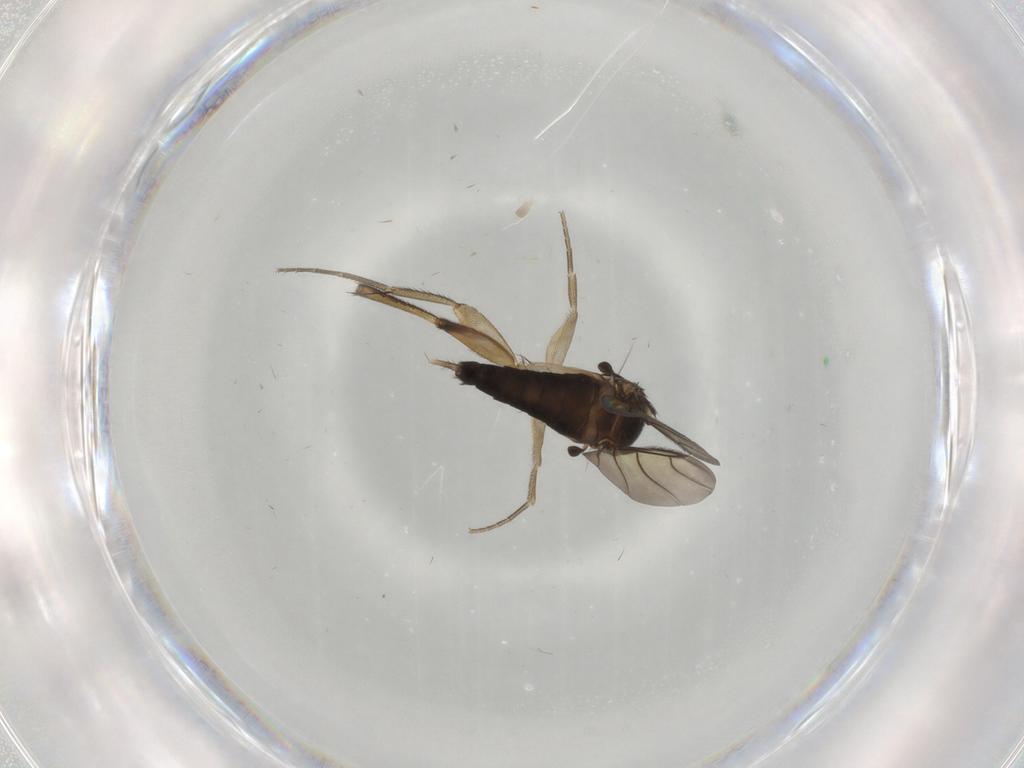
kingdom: Animalia
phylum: Arthropoda
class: Insecta
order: Diptera
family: Phoridae
